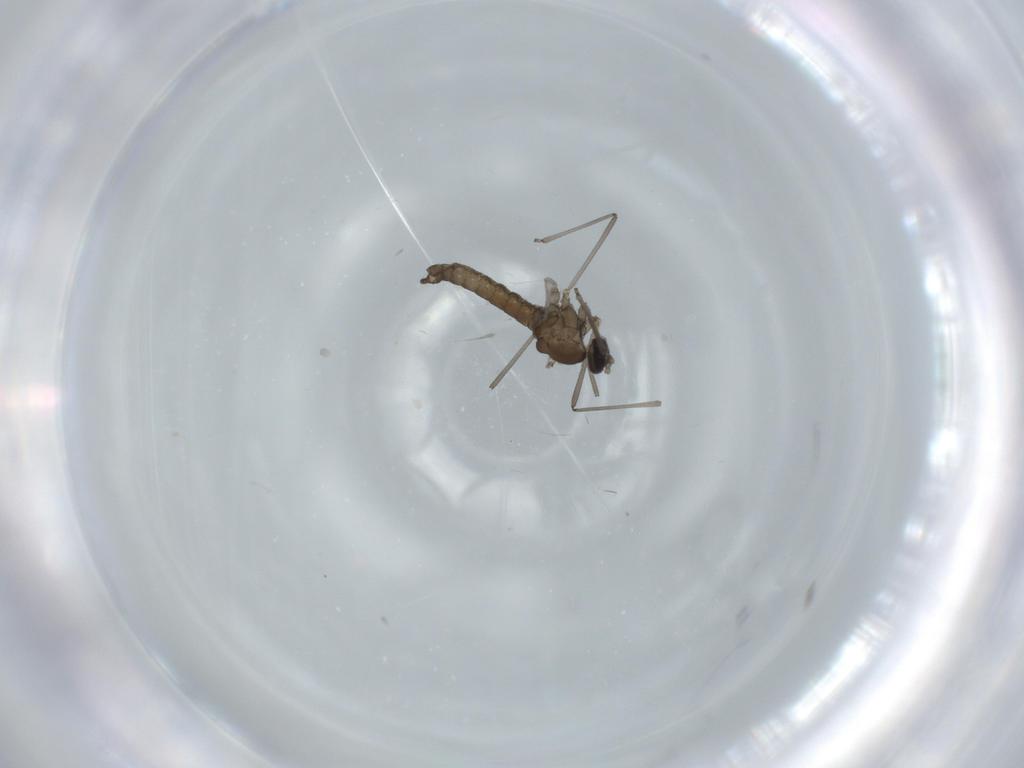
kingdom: Animalia
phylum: Arthropoda
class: Insecta
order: Diptera
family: Cecidomyiidae
